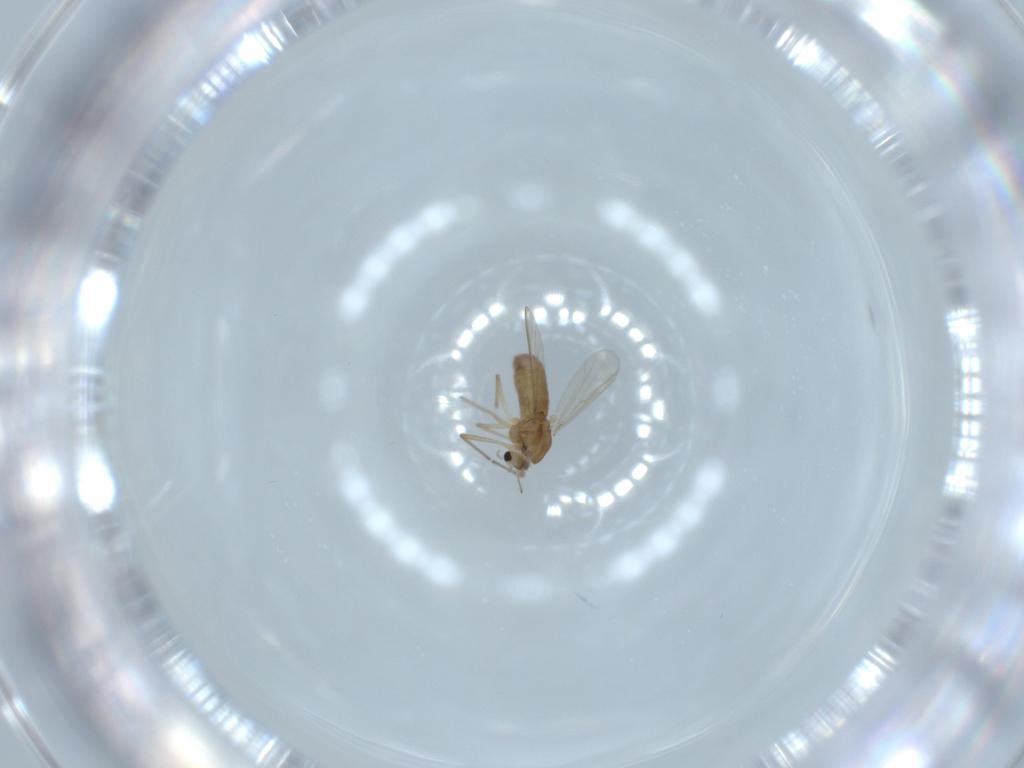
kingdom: Animalia
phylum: Arthropoda
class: Insecta
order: Diptera
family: Chironomidae
